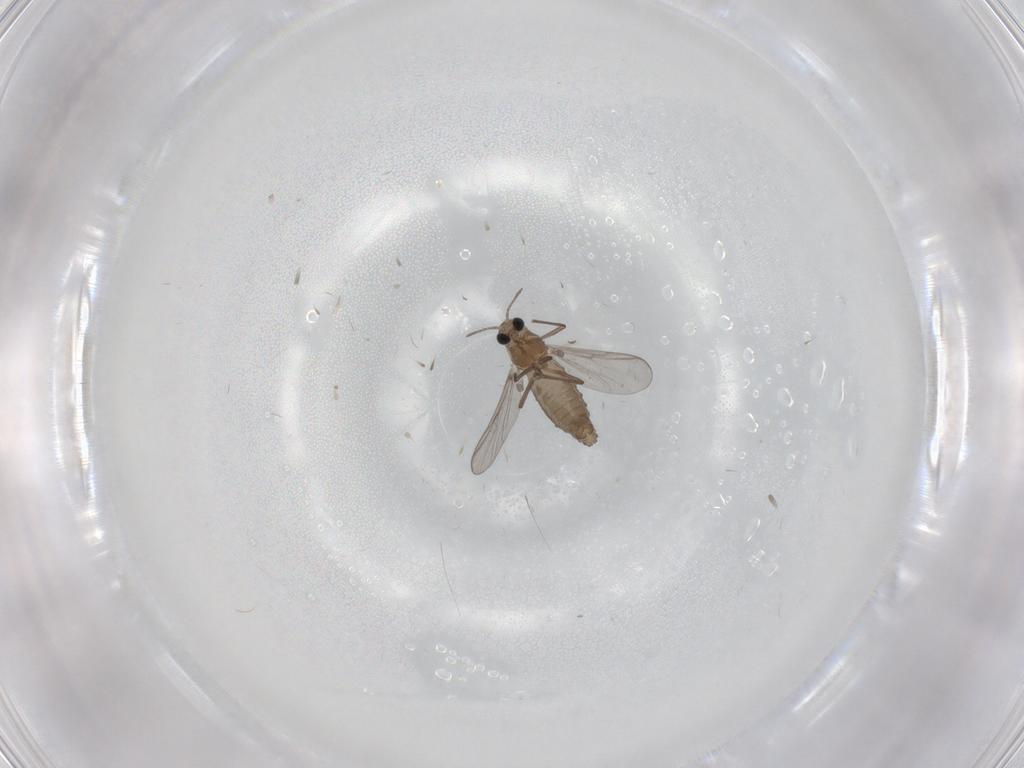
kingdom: Animalia
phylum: Arthropoda
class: Insecta
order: Diptera
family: Chironomidae
